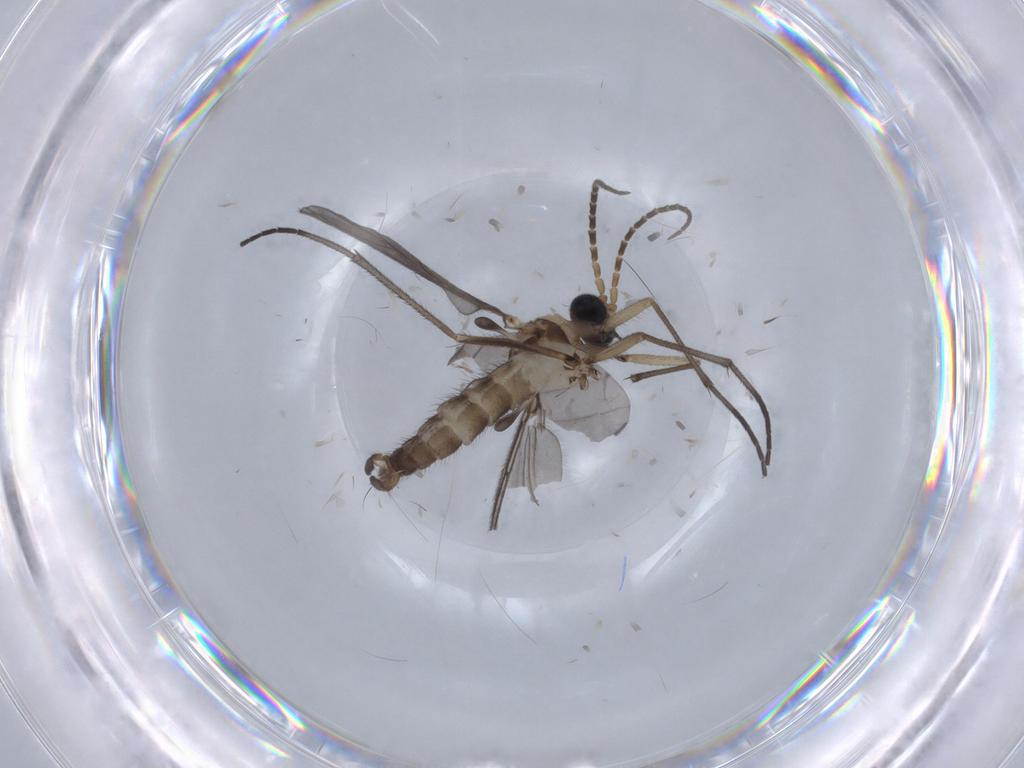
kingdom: Animalia
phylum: Arthropoda
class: Insecta
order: Diptera
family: Sciaridae
